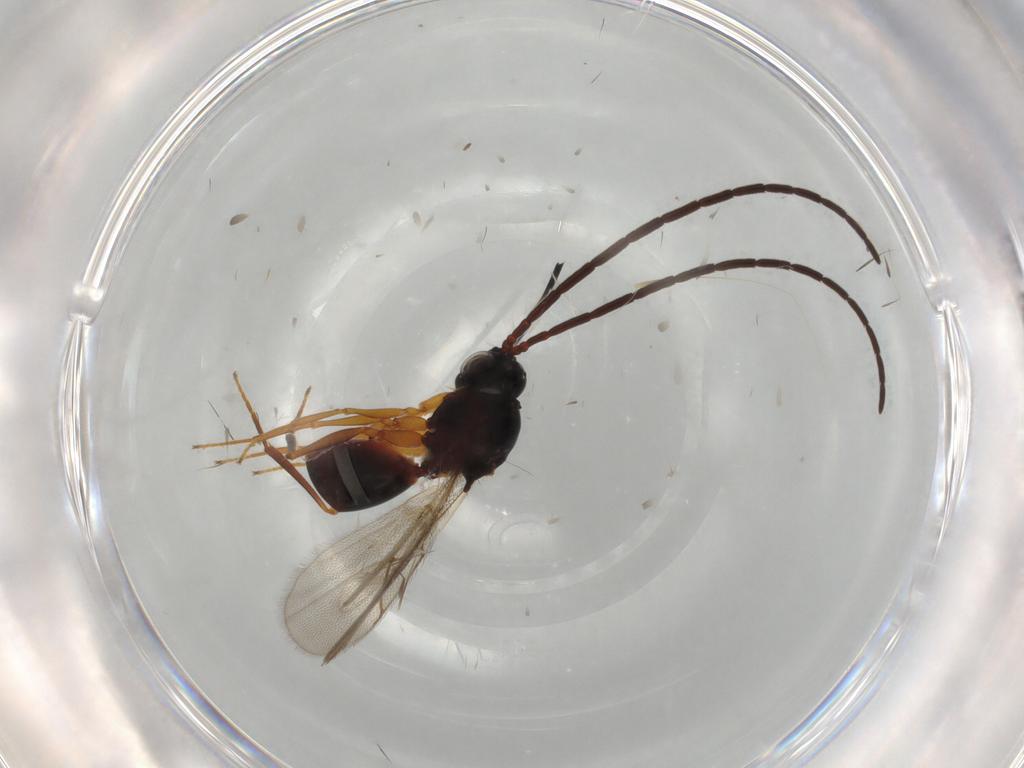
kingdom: Animalia
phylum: Arthropoda
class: Insecta
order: Hymenoptera
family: Figitidae
